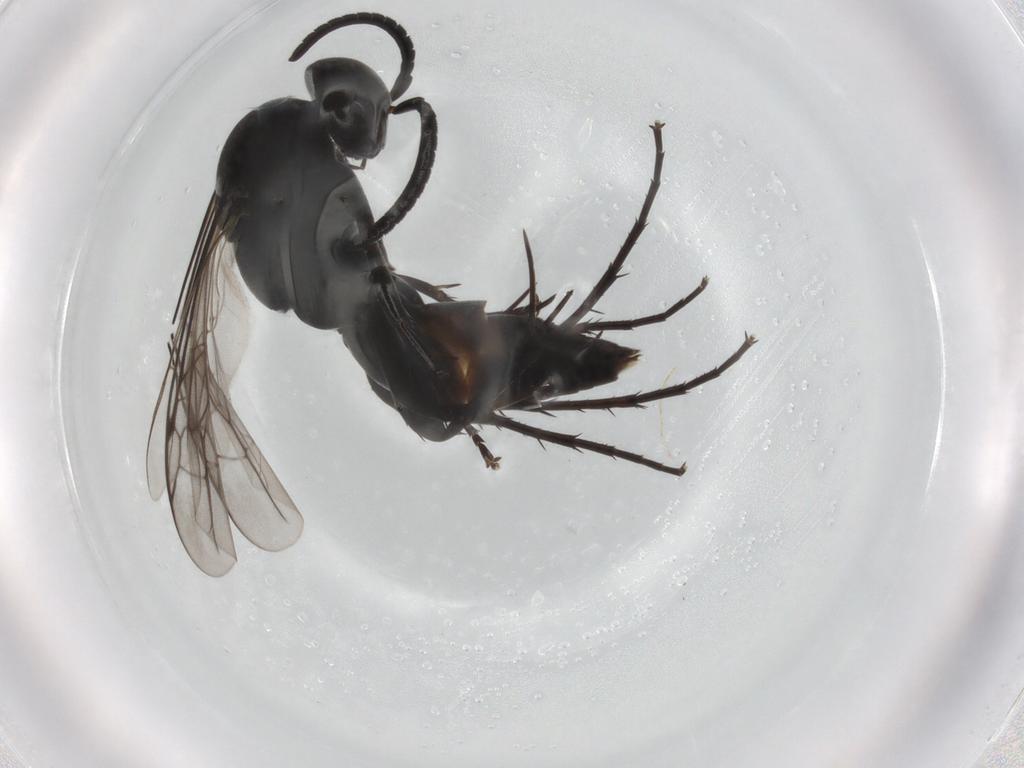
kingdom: Animalia
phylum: Arthropoda
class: Insecta
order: Hymenoptera
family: Pompilidae
